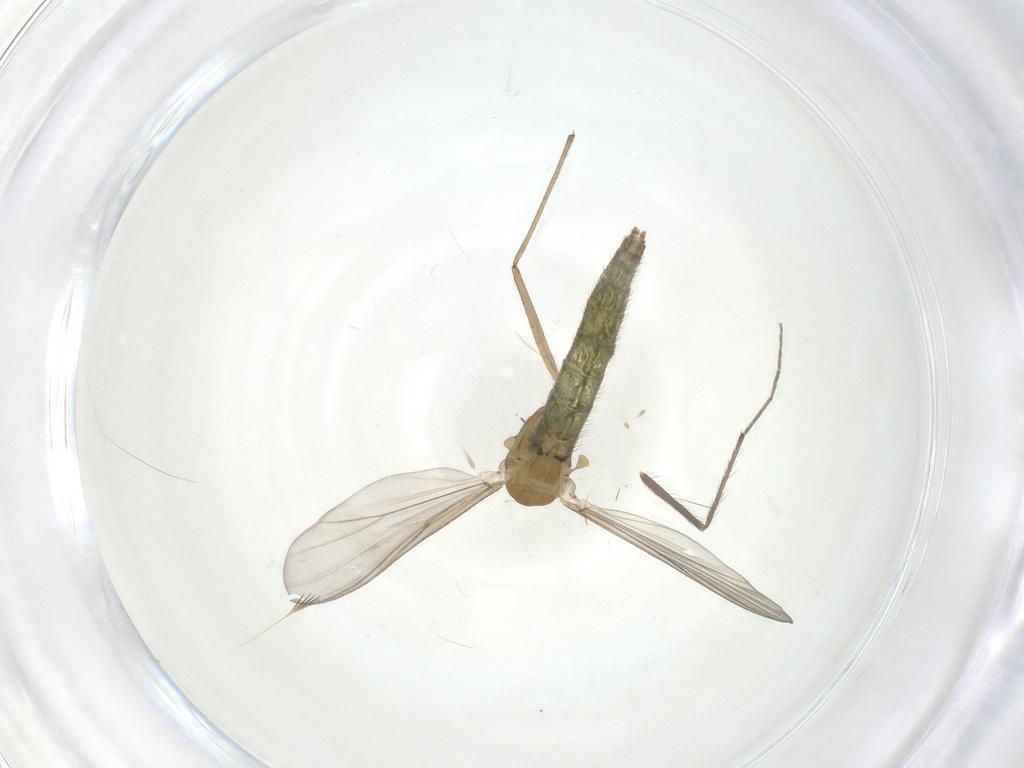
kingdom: Animalia
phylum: Arthropoda
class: Insecta
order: Diptera
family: Chironomidae
